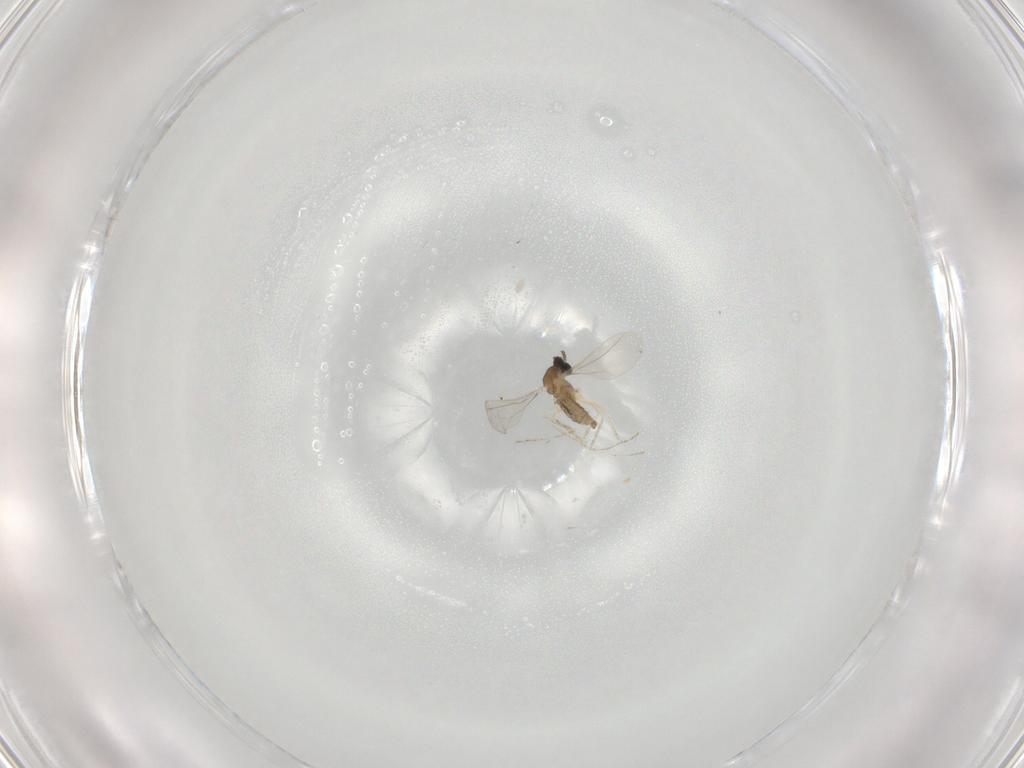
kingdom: Animalia
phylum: Arthropoda
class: Insecta
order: Diptera
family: Cecidomyiidae
